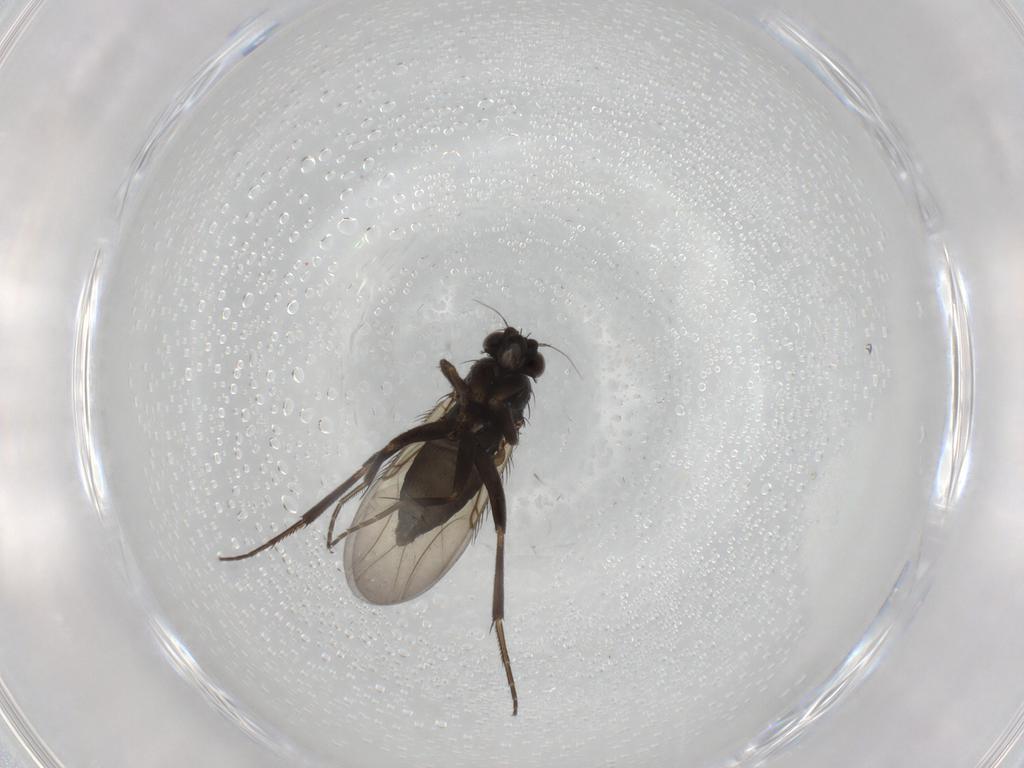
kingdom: Animalia
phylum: Arthropoda
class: Insecta
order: Diptera
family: Phoridae
